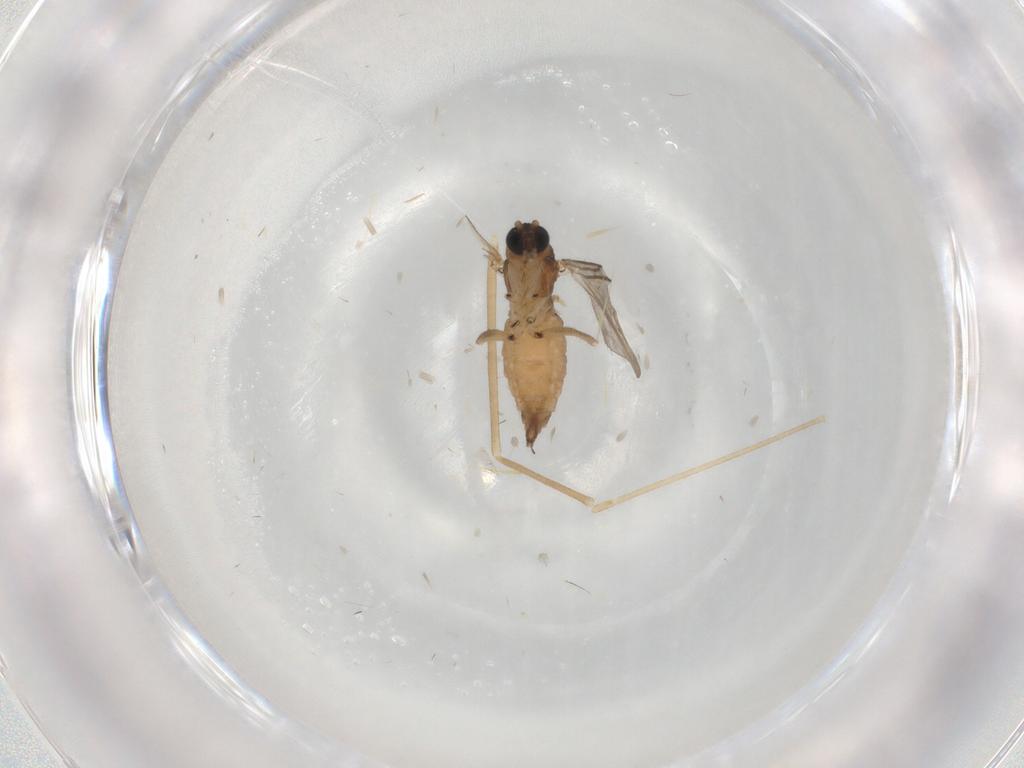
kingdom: Animalia
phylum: Arthropoda
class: Insecta
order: Diptera
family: Sciaridae
